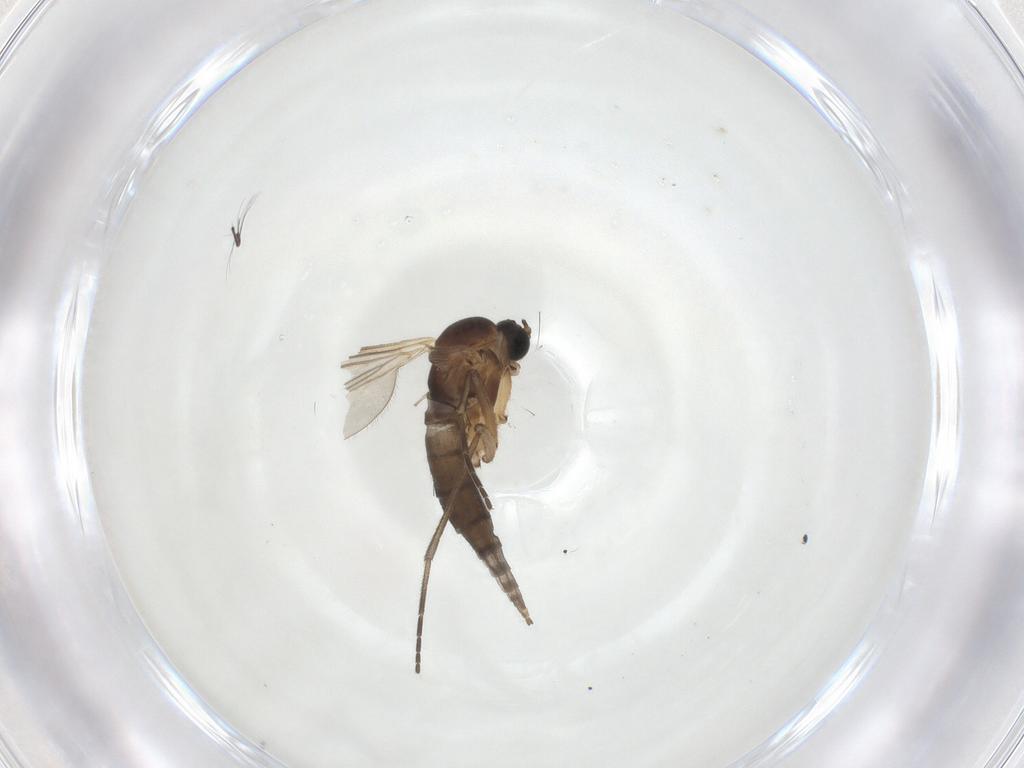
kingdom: Animalia
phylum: Arthropoda
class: Insecta
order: Diptera
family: Sciaridae
